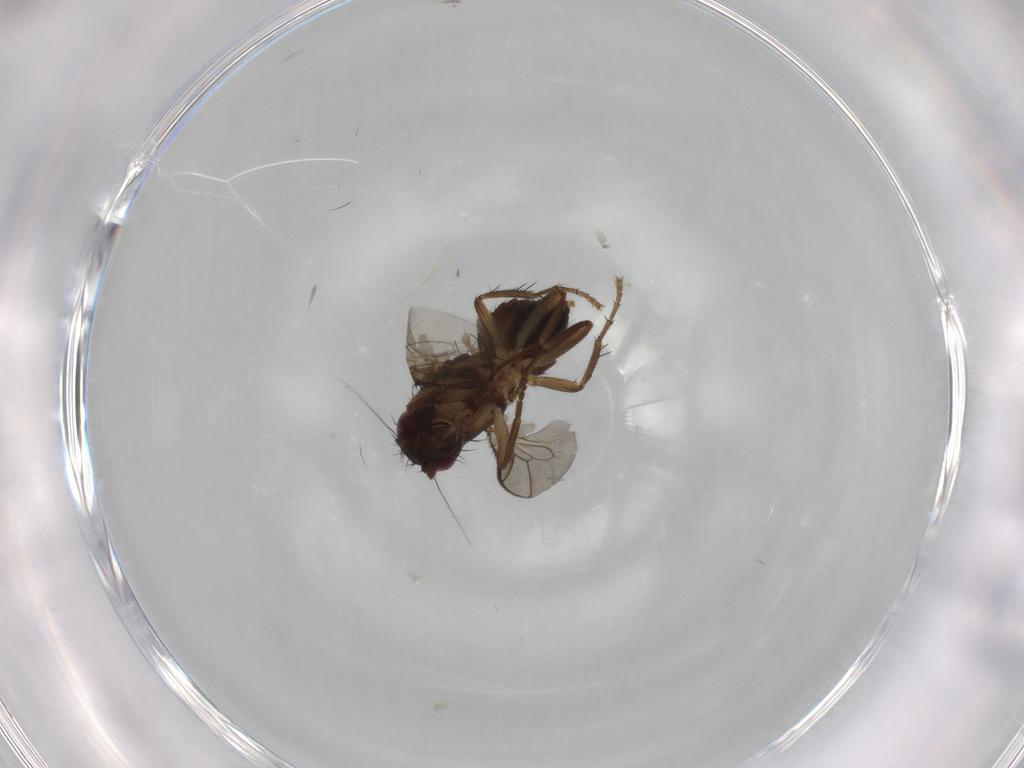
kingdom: Animalia
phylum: Arthropoda
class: Insecta
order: Diptera
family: Sphaeroceridae
